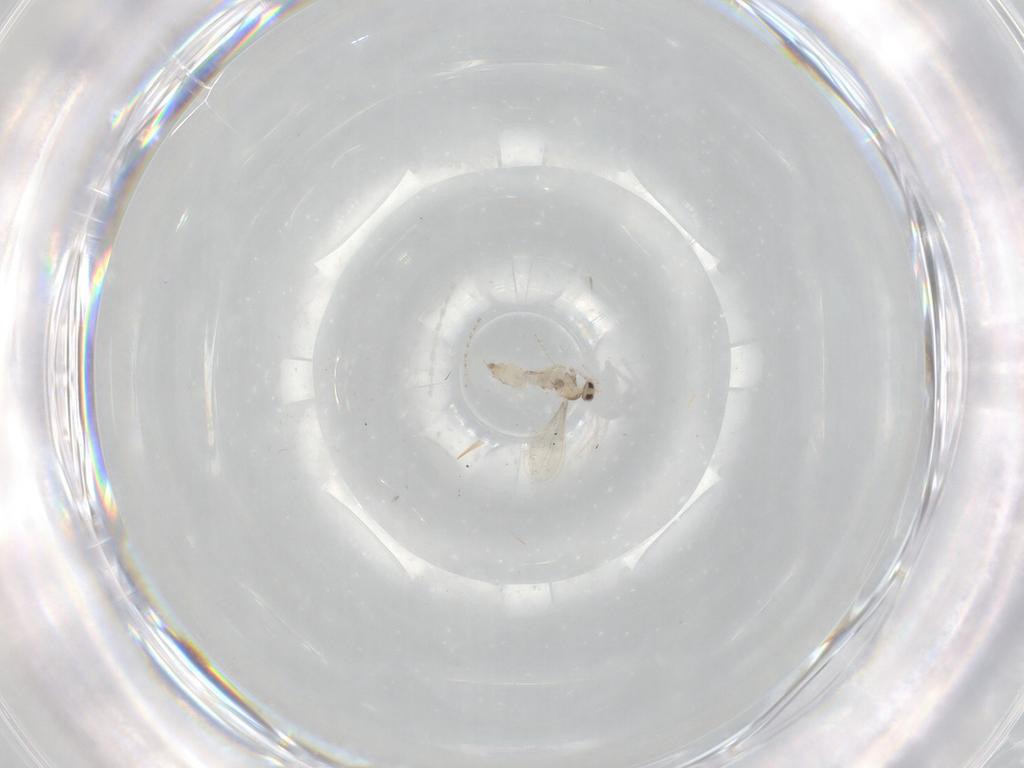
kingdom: Animalia
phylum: Arthropoda
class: Insecta
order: Diptera
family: Cecidomyiidae
